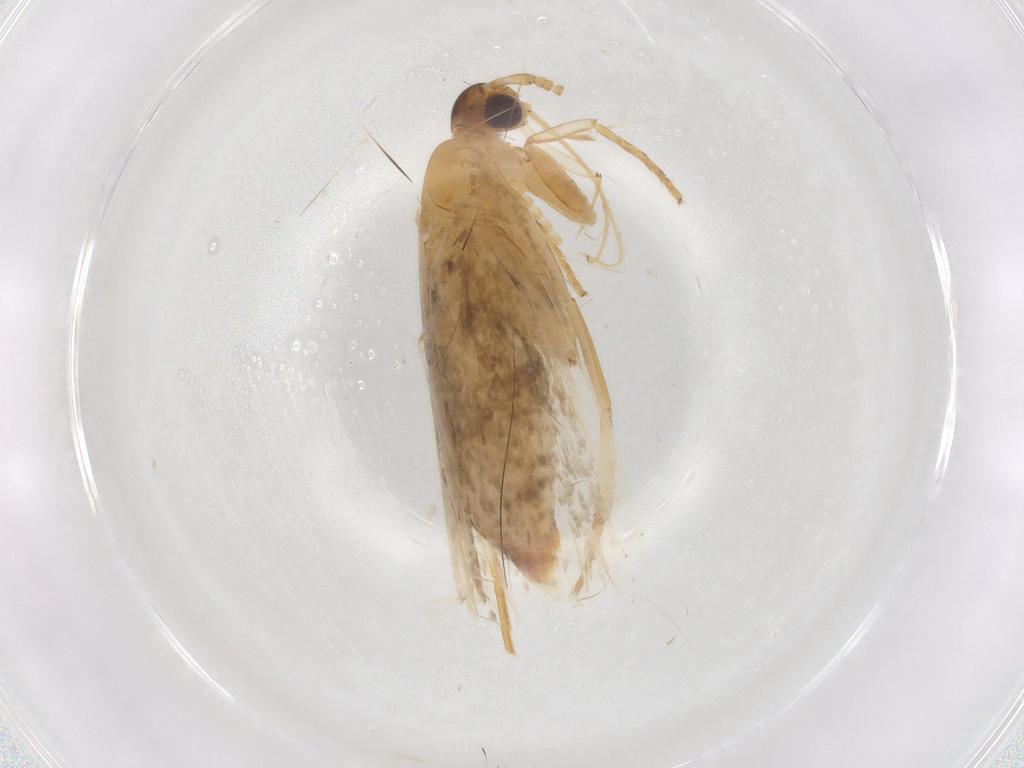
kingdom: Animalia
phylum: Arthropoda
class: Insecta
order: Lepidoptera
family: Lecithoceridae
